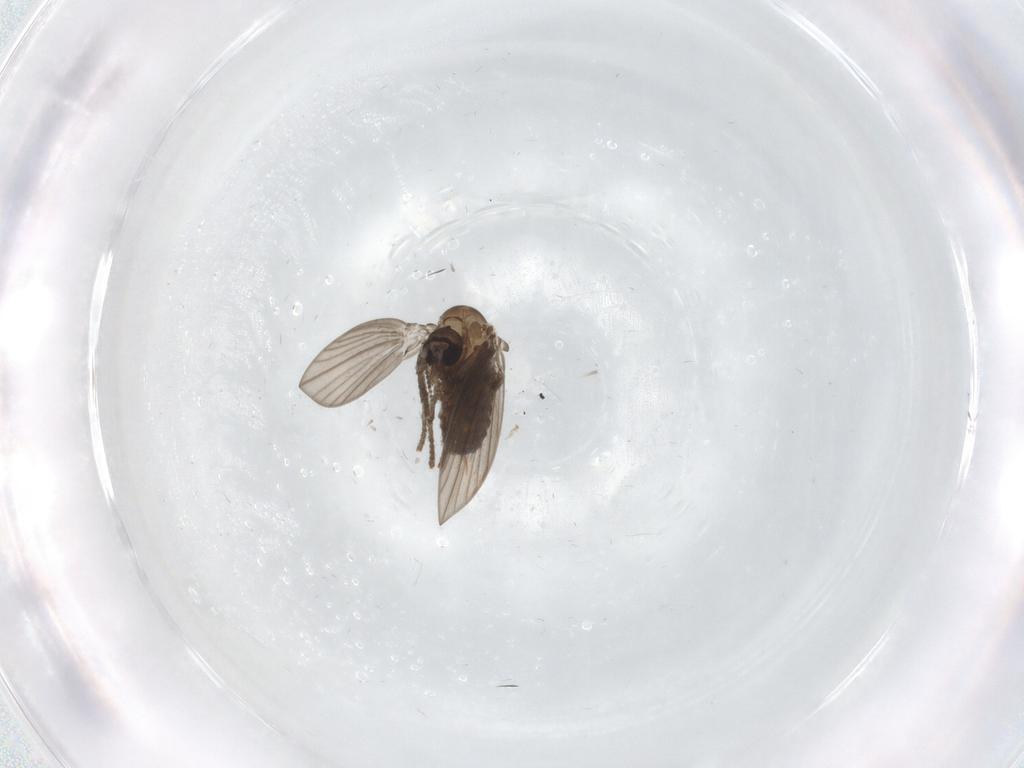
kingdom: Animalia
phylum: Arthropoda
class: Insecta
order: Diptera
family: Psychodidae
